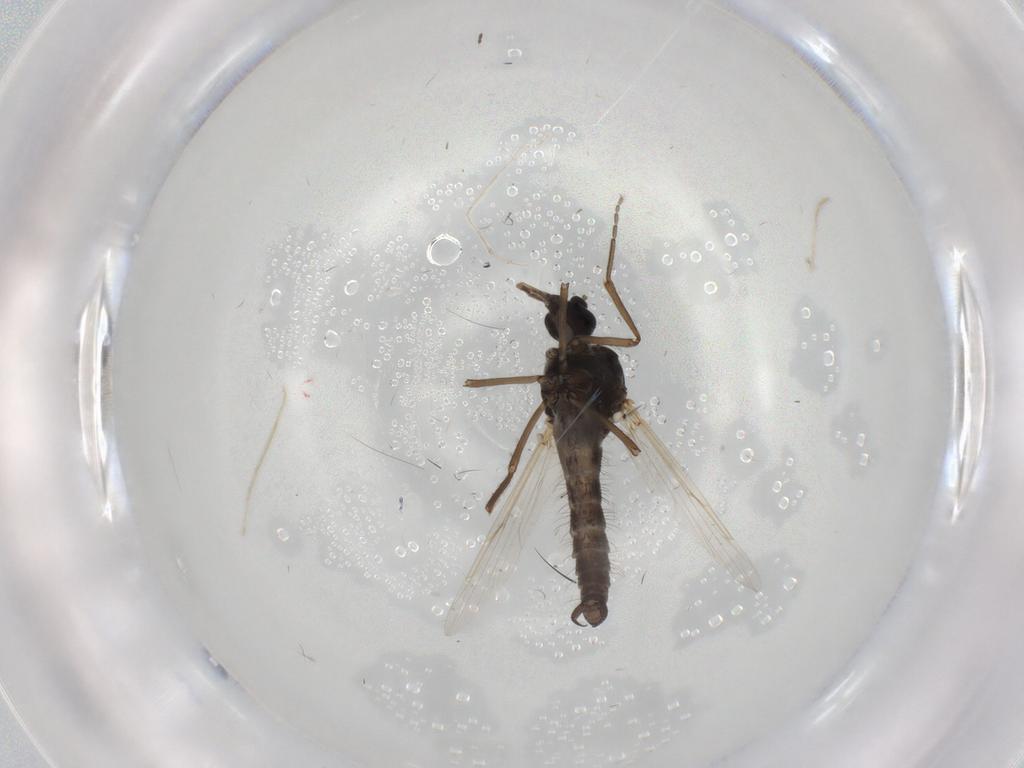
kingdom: Animalia
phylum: Arthropoda
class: Insecta
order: Diptera
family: Ceratopogonidae
